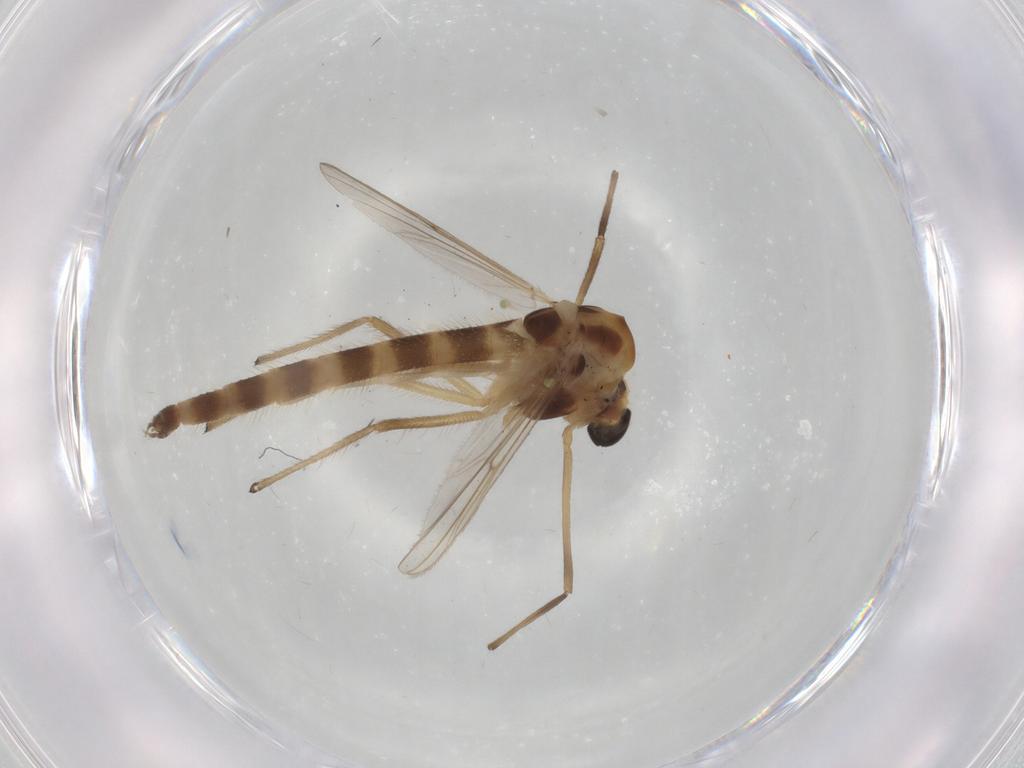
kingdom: Animalia
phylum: Arthropoda
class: Insecta
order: Diptera
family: Chironomidae
